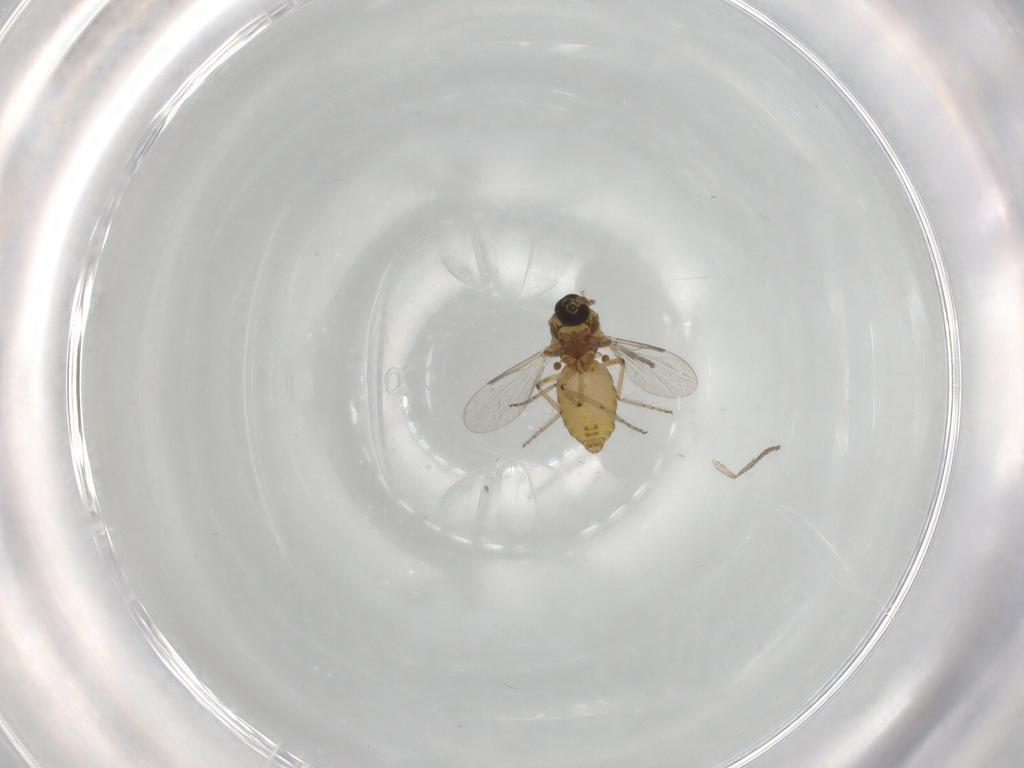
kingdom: Animalia
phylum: Arthropoda
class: Insecta
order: Diptera
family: Ceratopogonidae
